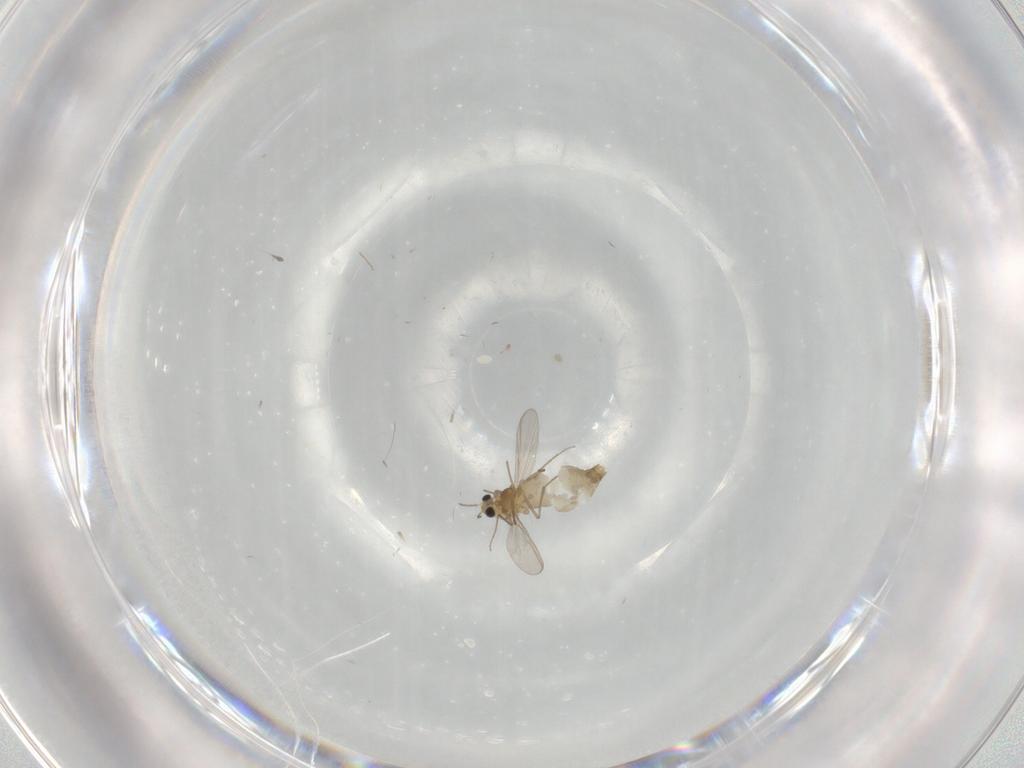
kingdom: Animalia
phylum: Arthropoda
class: Insecta
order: Diptera
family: Chironomidae
